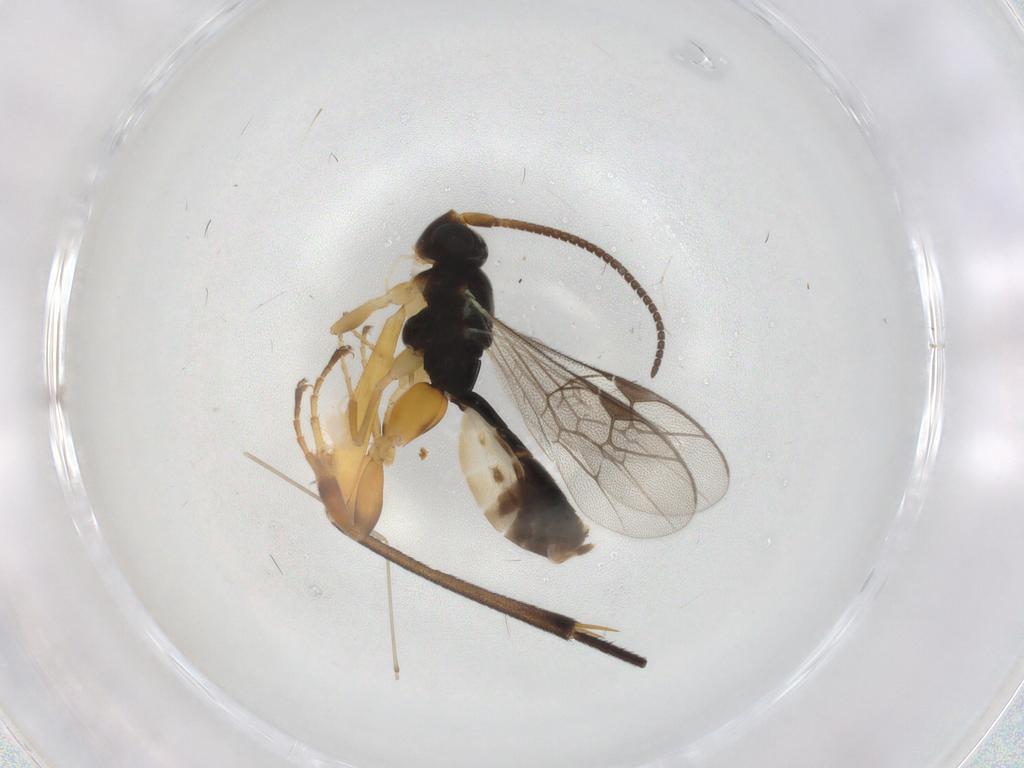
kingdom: Animalia
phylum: Arthropoda
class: Insecta
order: Hymenoptera
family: Ichneumonidae
